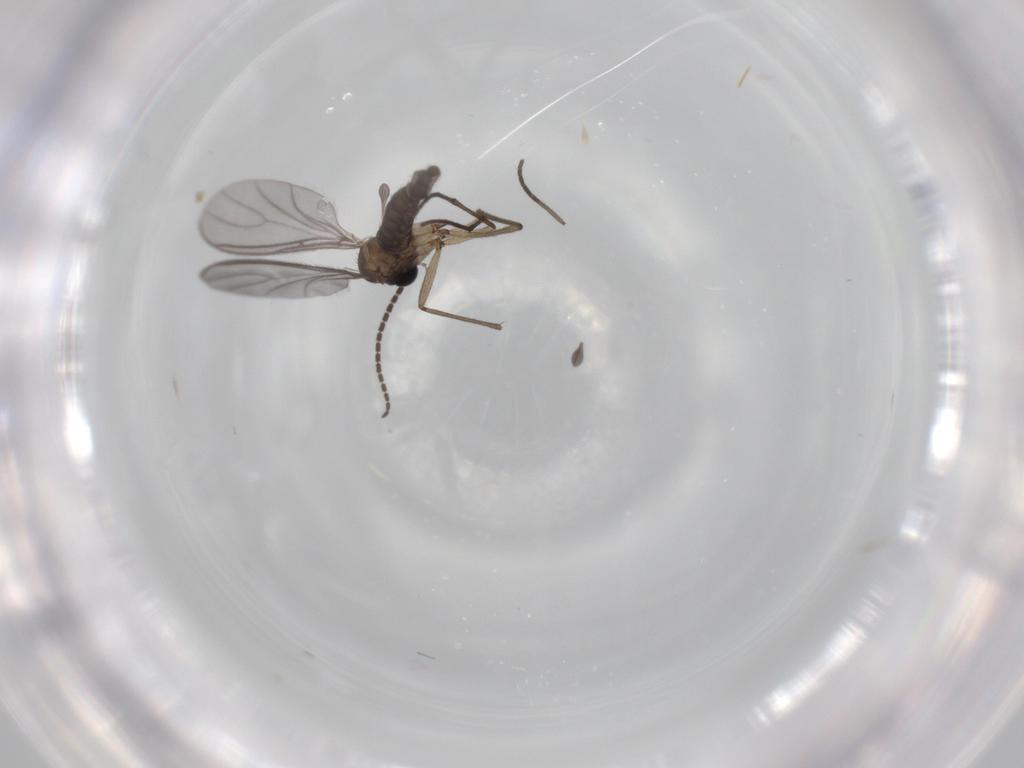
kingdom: Animalia
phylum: Arthropoda
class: Insecta
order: Diptera
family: Sciaridae
